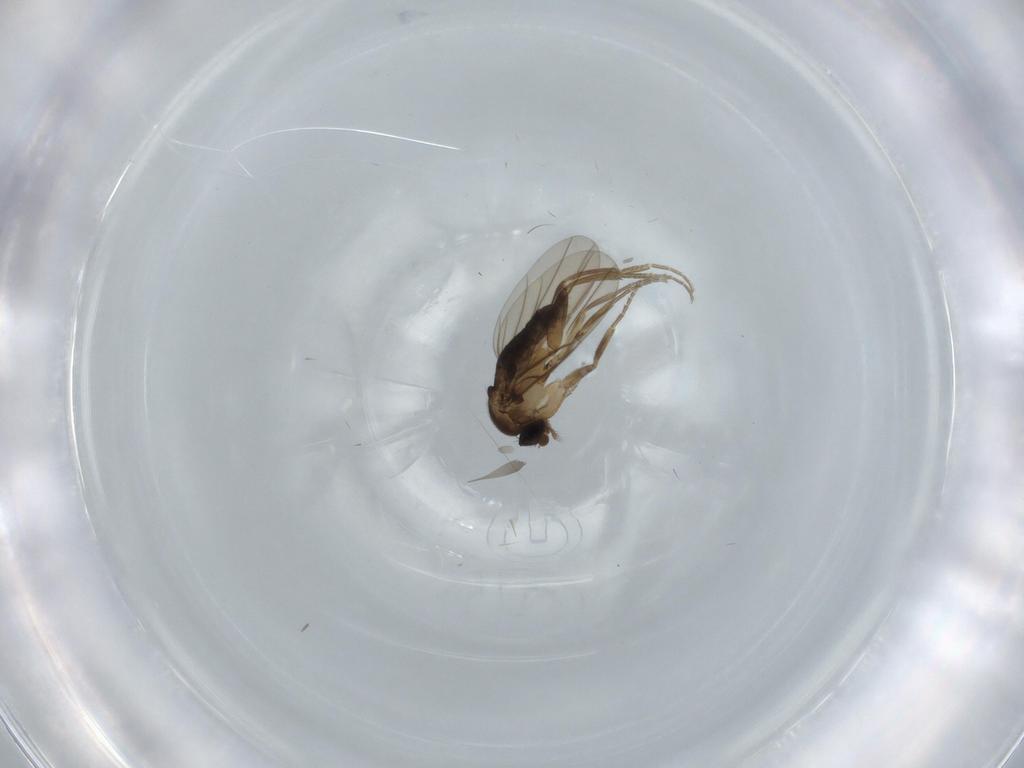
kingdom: Animalia
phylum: Arthropoda
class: Insecta
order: Diptera
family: Phoridae
